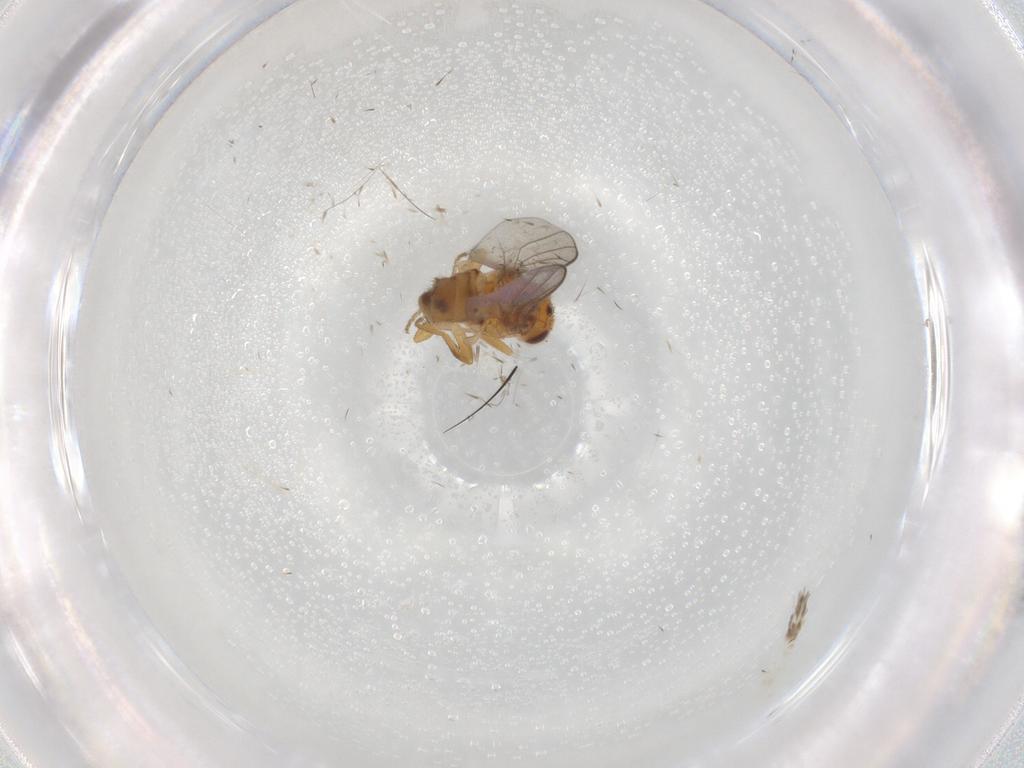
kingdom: Animalia
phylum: Arthropoda
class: Insecta
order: Diptera
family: Chloropidae
